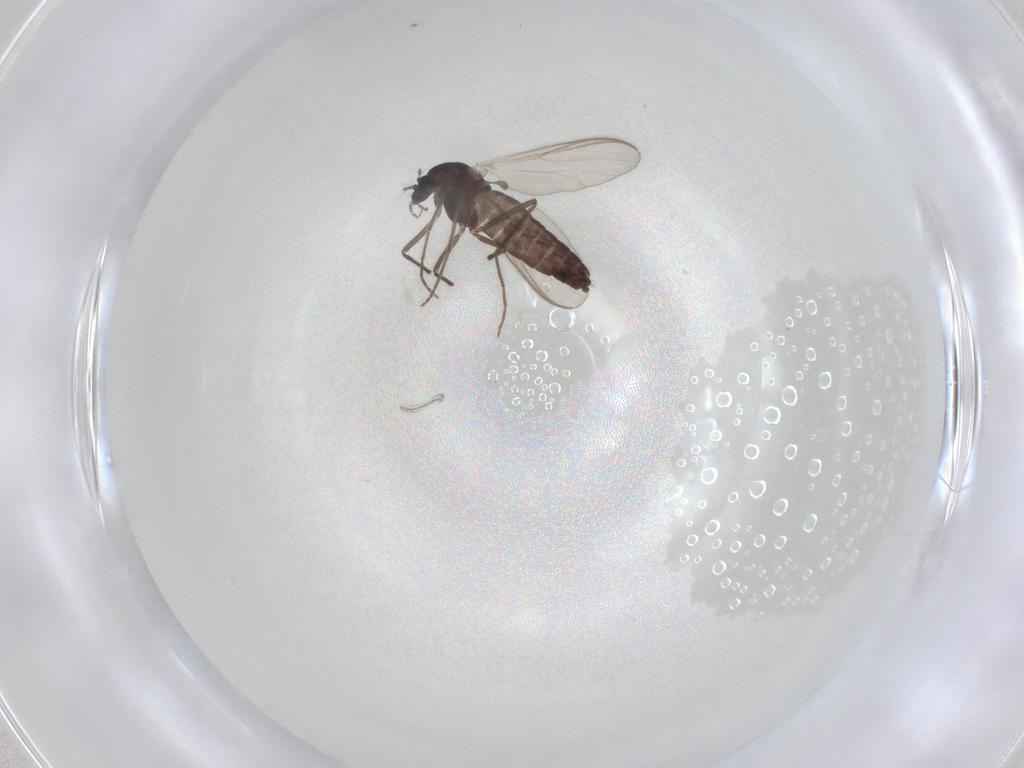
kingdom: Animalia
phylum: Arthropoda
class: Insecta
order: Diptera
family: Chironomidae
